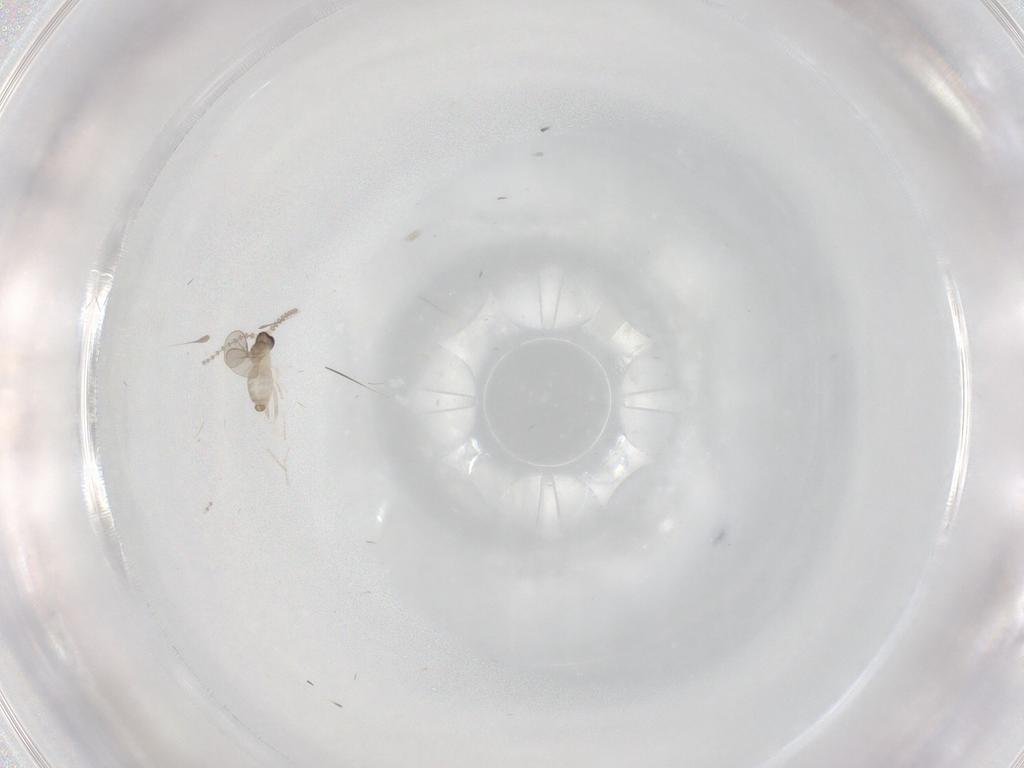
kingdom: Animalia
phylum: Arthropoda
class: Insecta
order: Diptera
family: Cecidomyiidae
